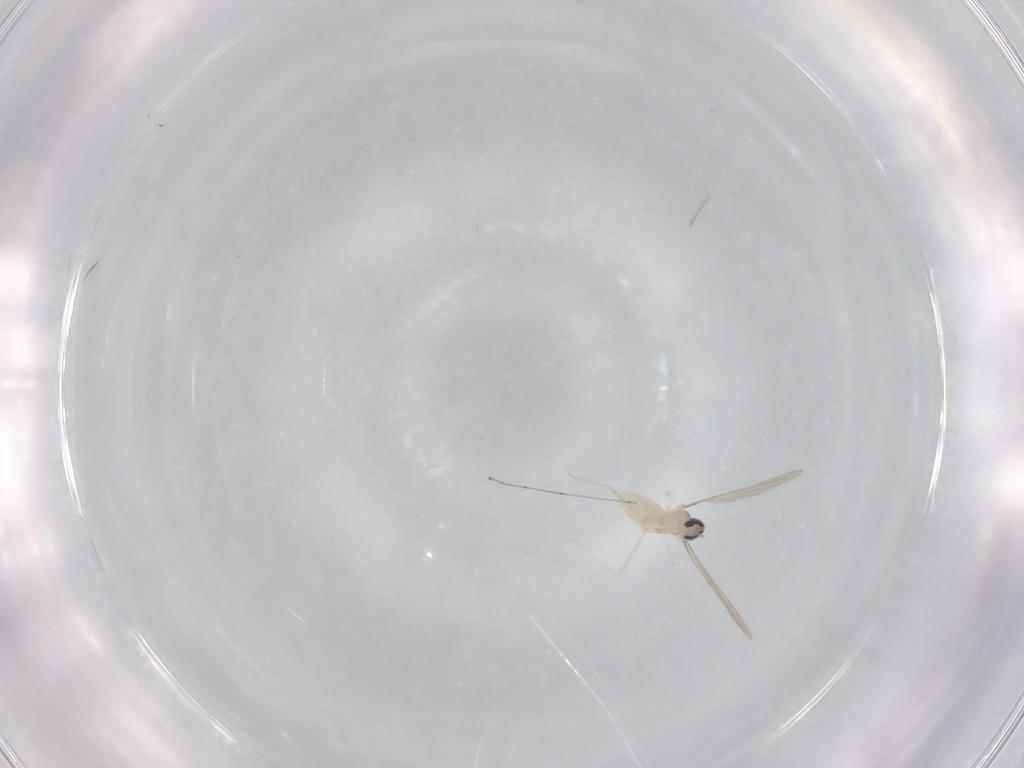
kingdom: Animalia
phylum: Arthropoda
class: Insecta
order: Diptera
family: Cecidomyiidae
